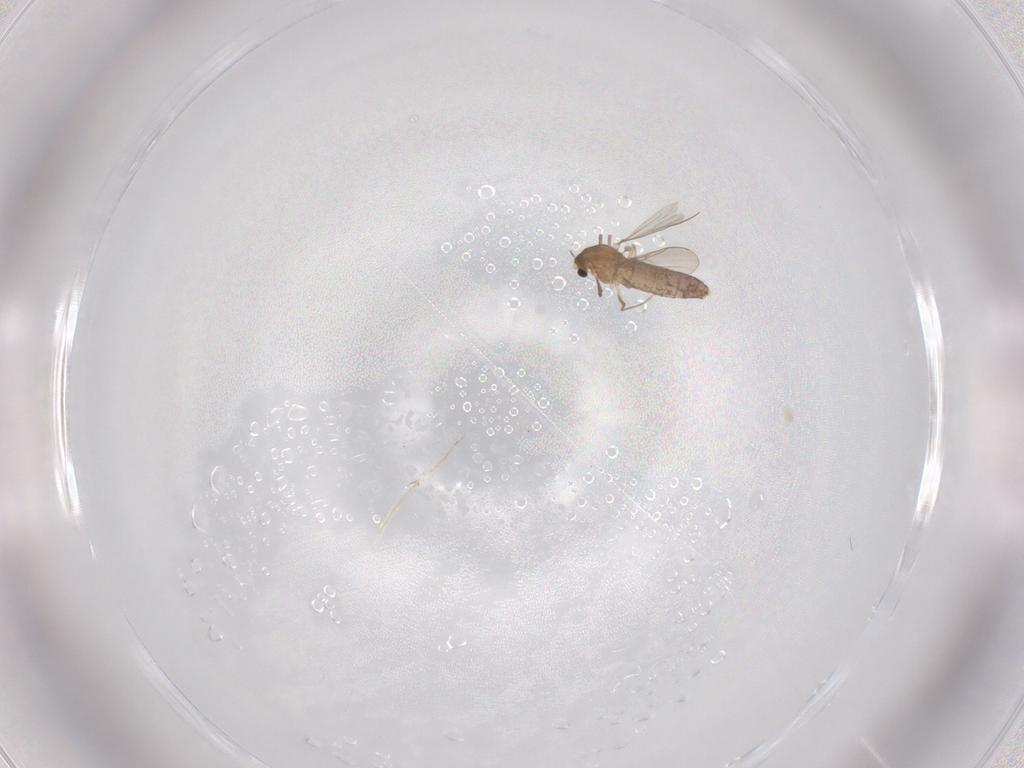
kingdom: Animalia
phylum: Arthropoda
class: Insecta
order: Diptera
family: Chironomidae
